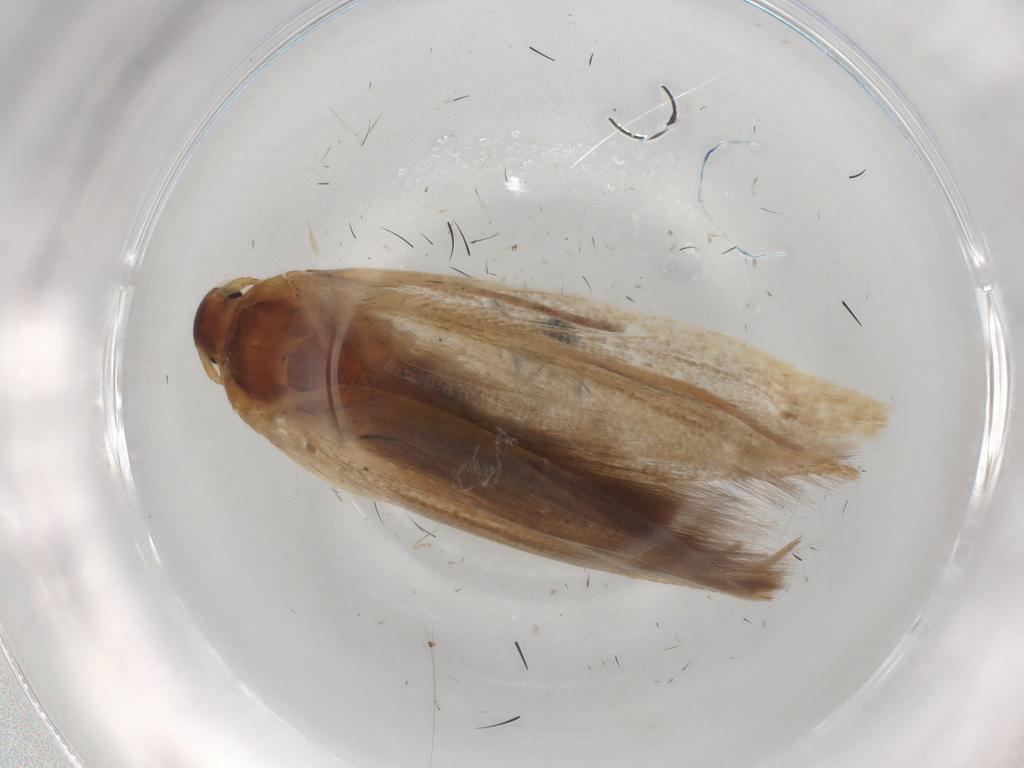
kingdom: Animalia
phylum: Arthropoda
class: Insecta
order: Lepidoptera
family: Scythrididae
